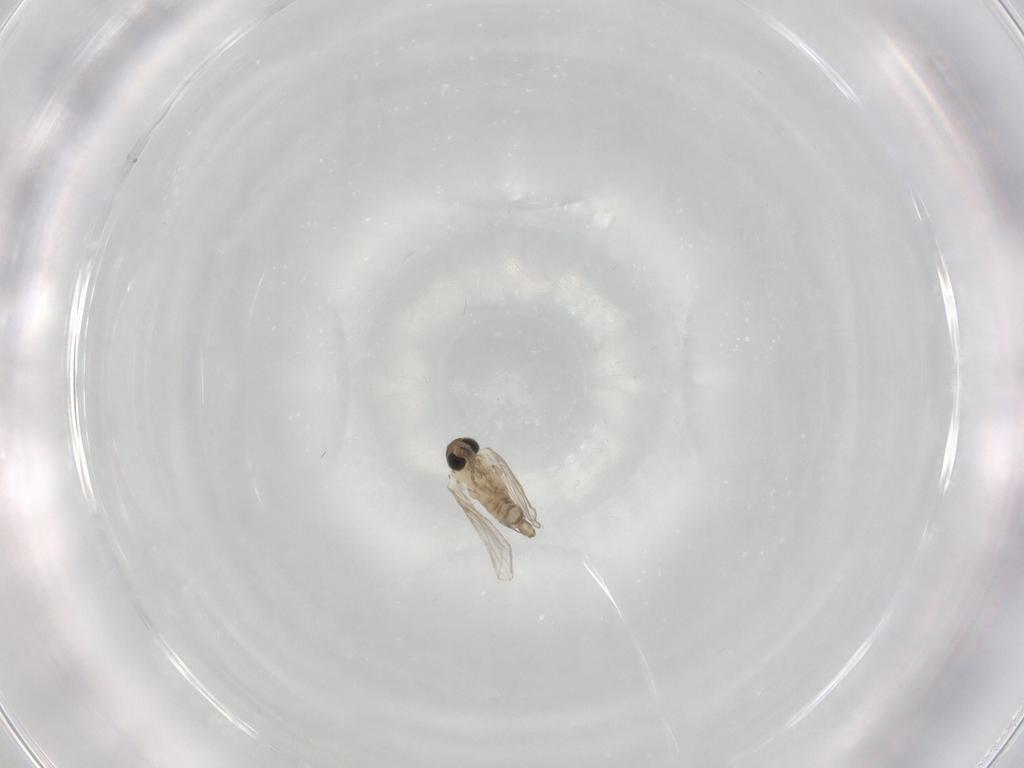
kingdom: Animalia
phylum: Arthropoda
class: Insecta
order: Diptera
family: Psychodidae
